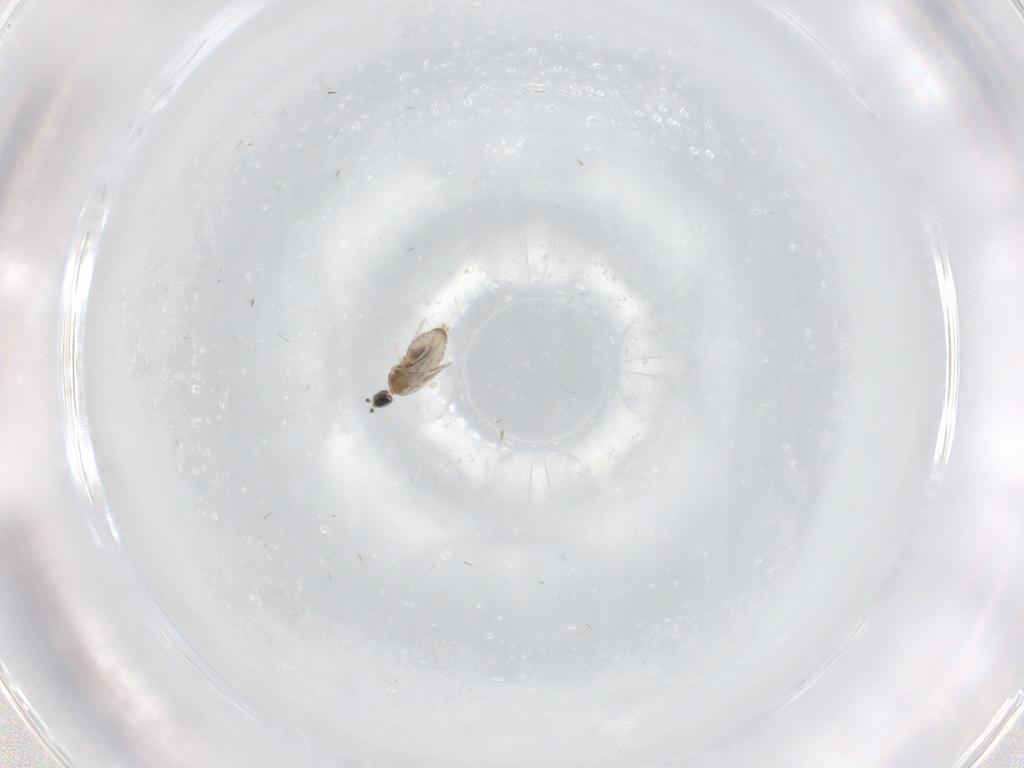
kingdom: Animalia
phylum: Arthropoda
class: Insecta
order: Diptera
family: Cecidomyiidae
